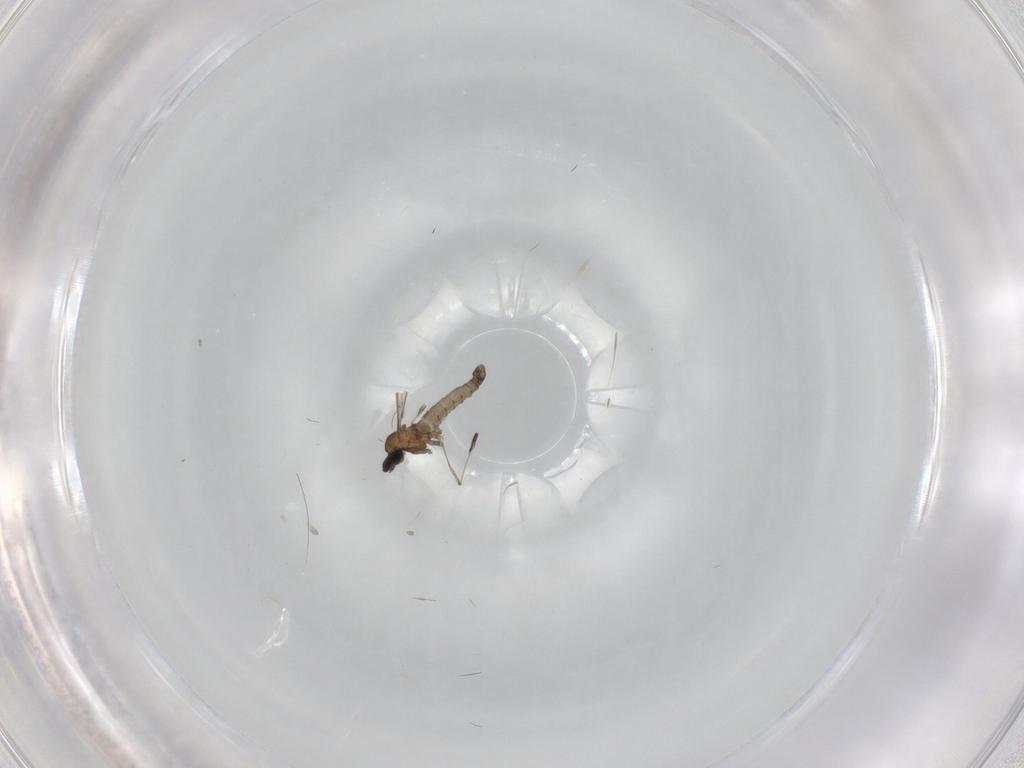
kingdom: Animalia
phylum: Arthropoda
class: Insecta
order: Diptera
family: Cecidomyiidae
